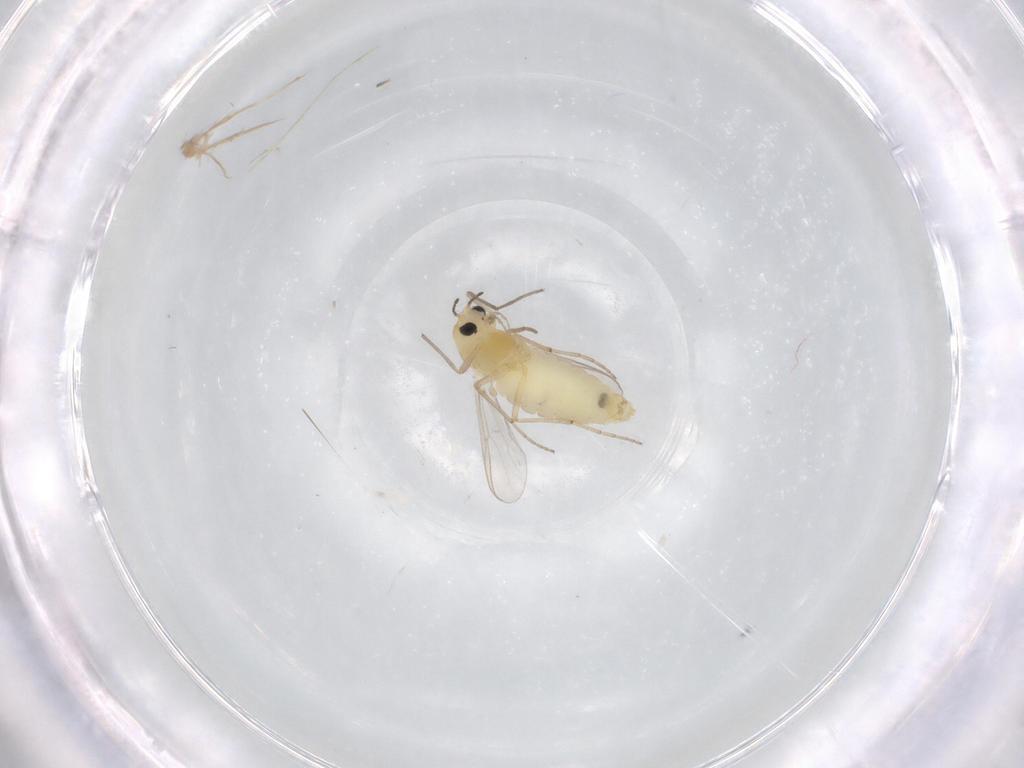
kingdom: Animalia
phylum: Arthropoda
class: Insecta
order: Diptera
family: Chironomidae
